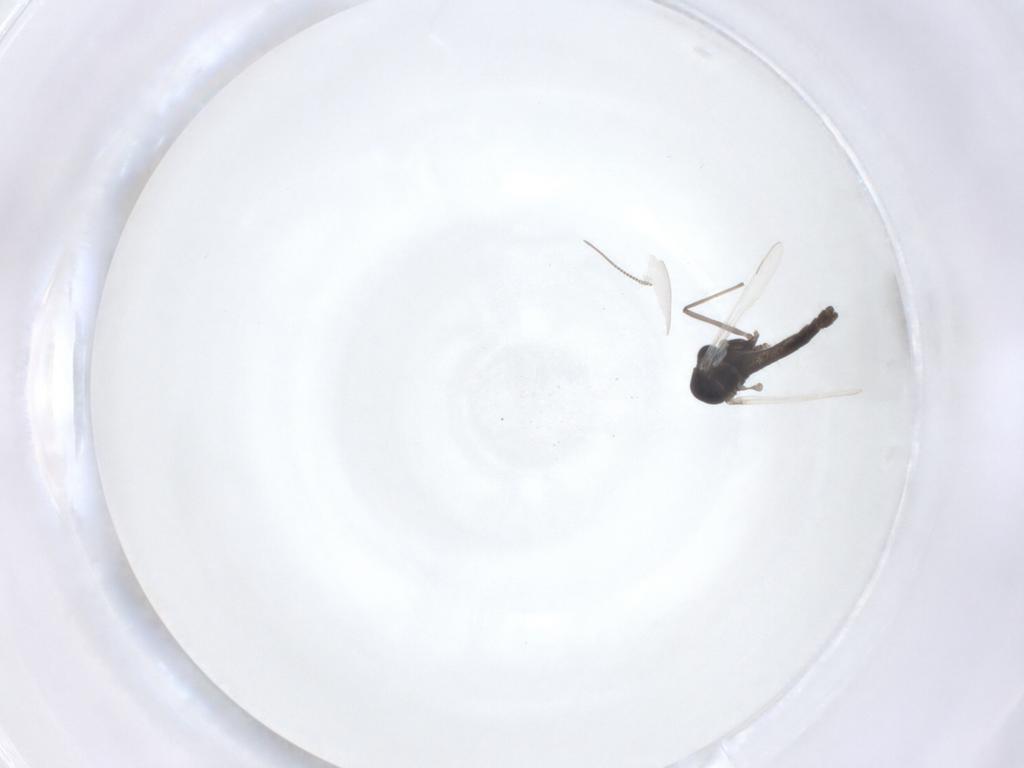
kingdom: Animalia
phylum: Arthropoda
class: Insecta
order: Diptera
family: Chironomidae
